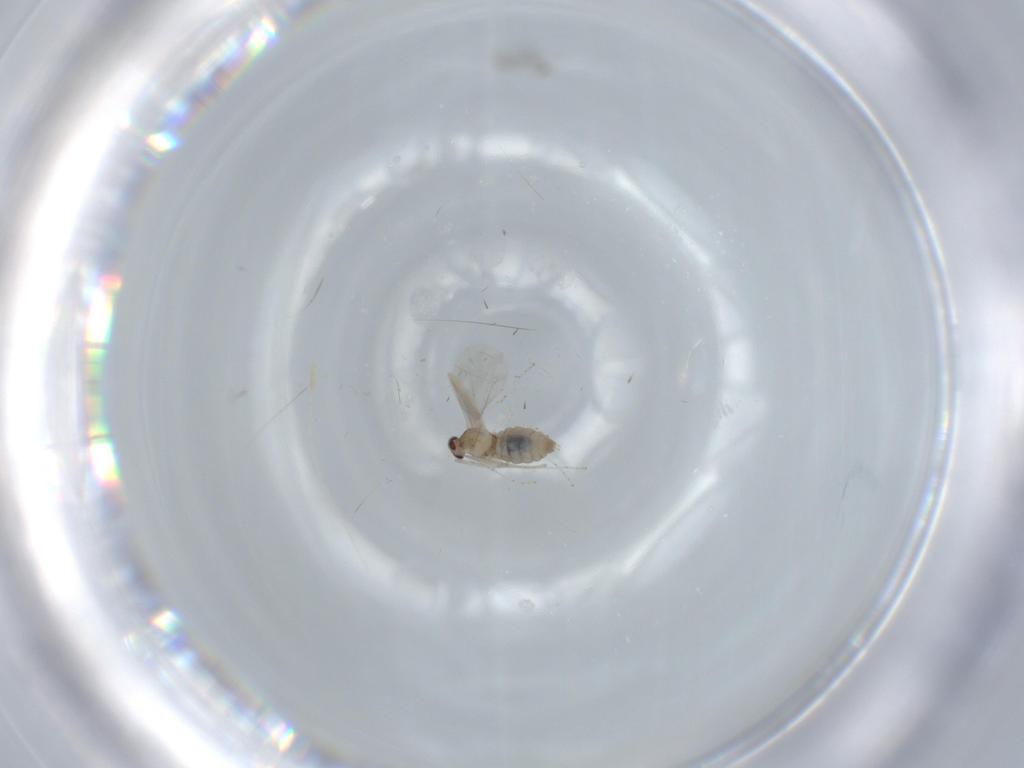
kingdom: Animalia
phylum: Arthropoda
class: Insecta
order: Diptera
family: Cecidomyiidae
